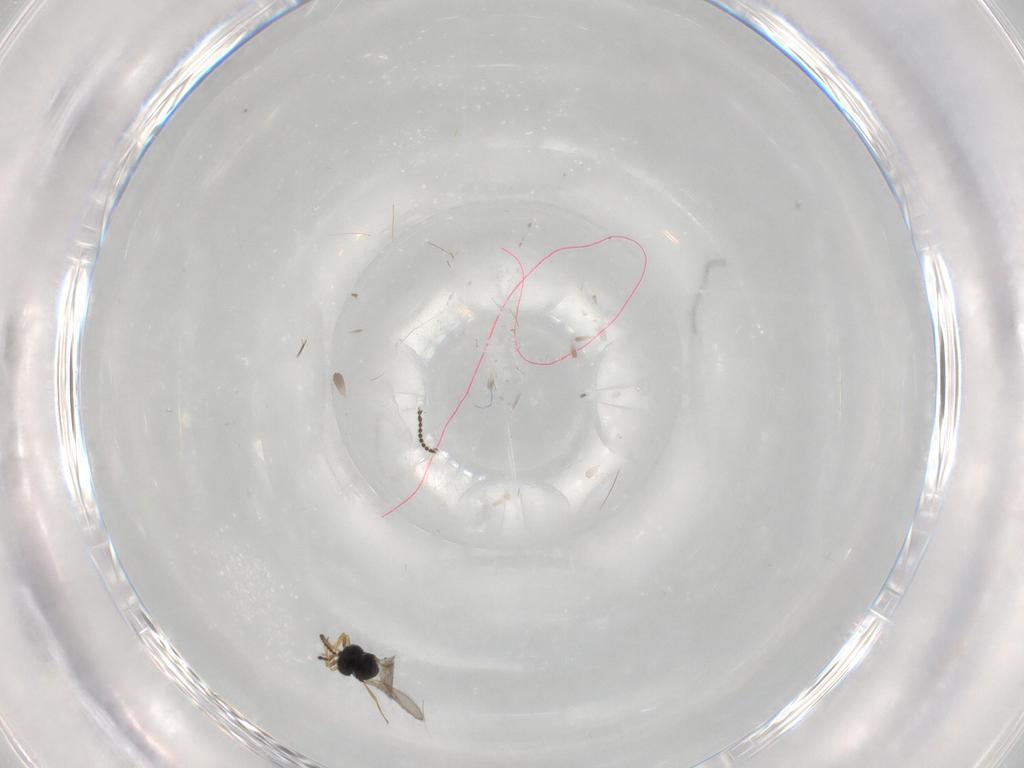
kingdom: Animalia
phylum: Arthropoda
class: Insecta
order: Hymenoptera
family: Scelionidae
